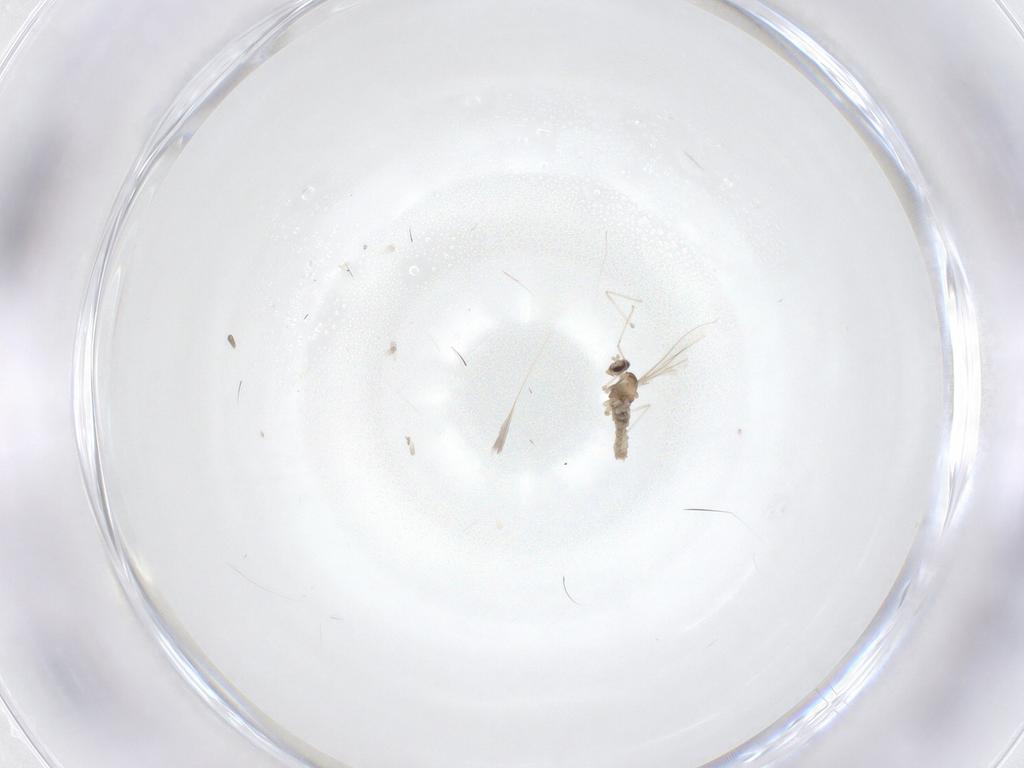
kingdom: Animalia
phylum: Arthropoda
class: Insecta
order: Diptera
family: Cecidomyiidae
